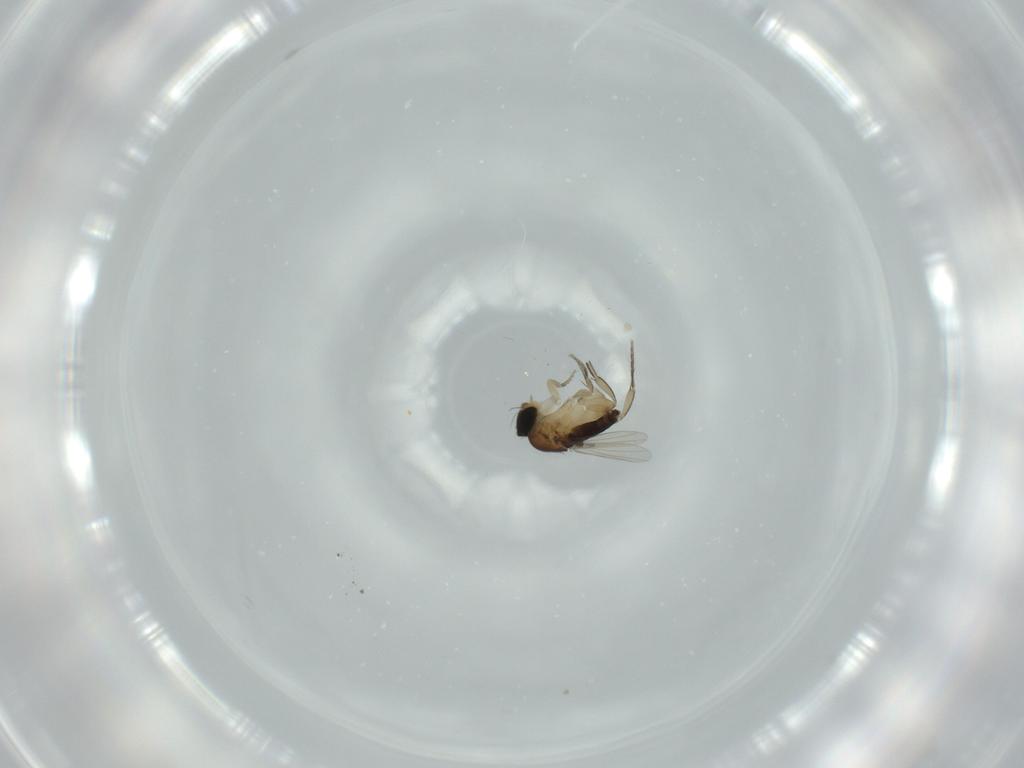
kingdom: Animalia
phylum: Arthropoda
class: Insecta
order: Diptera
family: Phoridae
